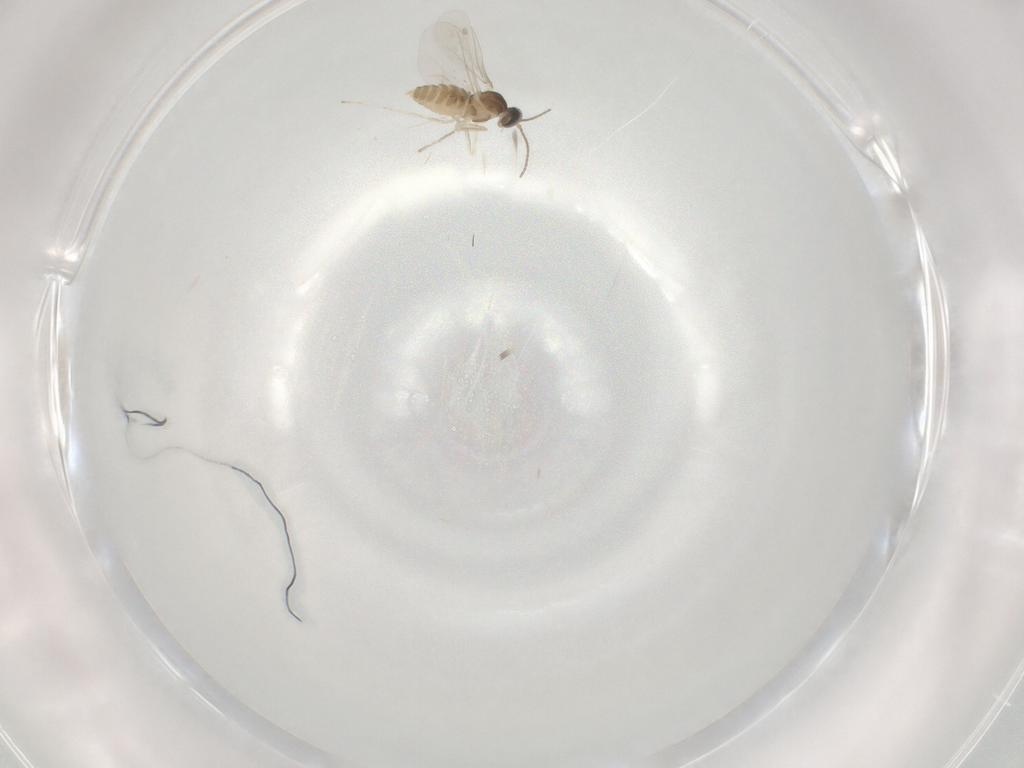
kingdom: Animalia
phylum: Arthropoda
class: Insecta
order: Diptera
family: Cecidomyiidae
